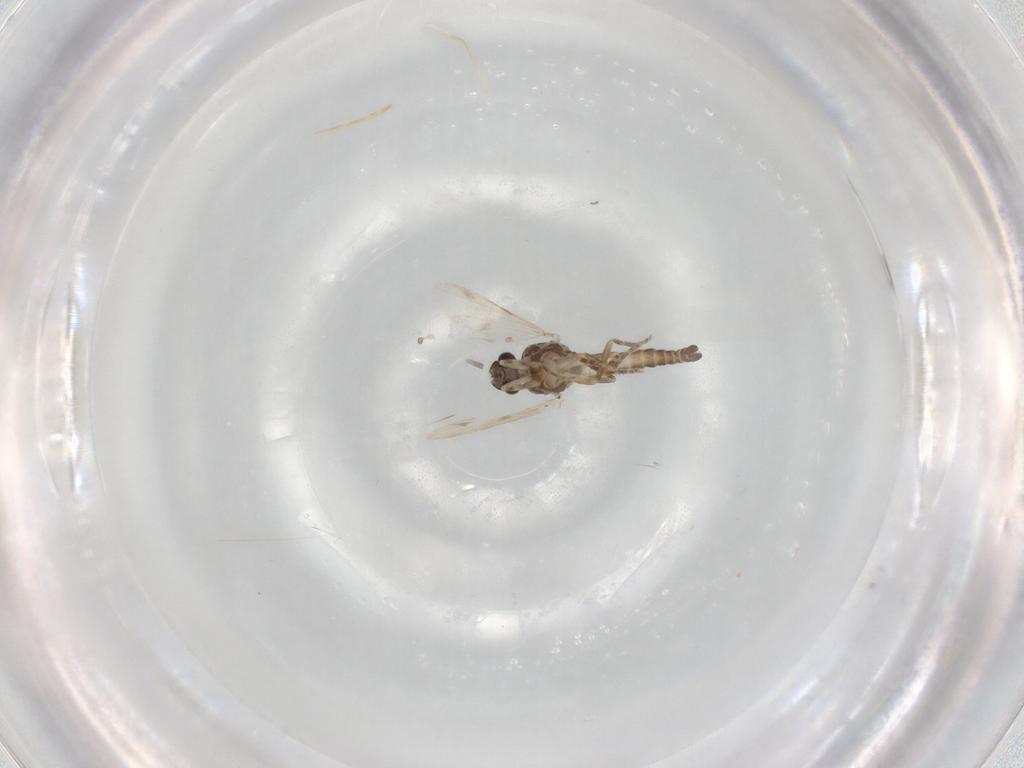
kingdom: Animalia
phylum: Arthropoda
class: Insecta
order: Diptera
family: Ceratopogonidae
